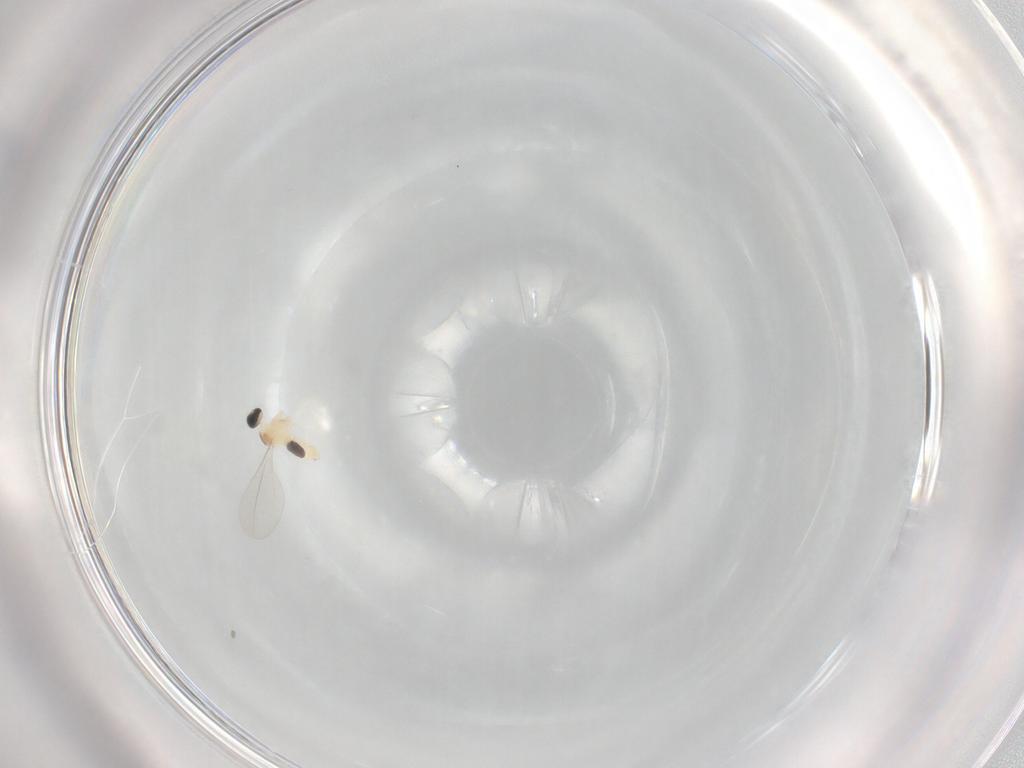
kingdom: Animalia
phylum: Arthropoda
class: Insecta
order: Diptera
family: Cecidomyiidae
